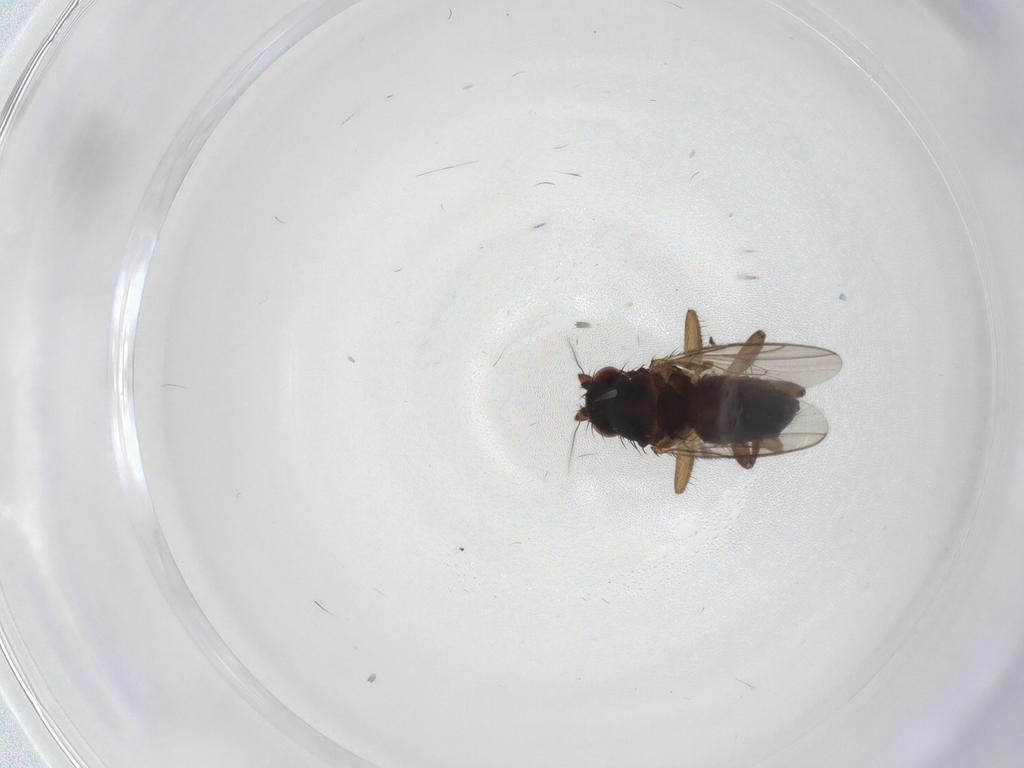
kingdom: Animalia
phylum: Arthropoda
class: Insecta
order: Diptera
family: Sphaeroceridae
